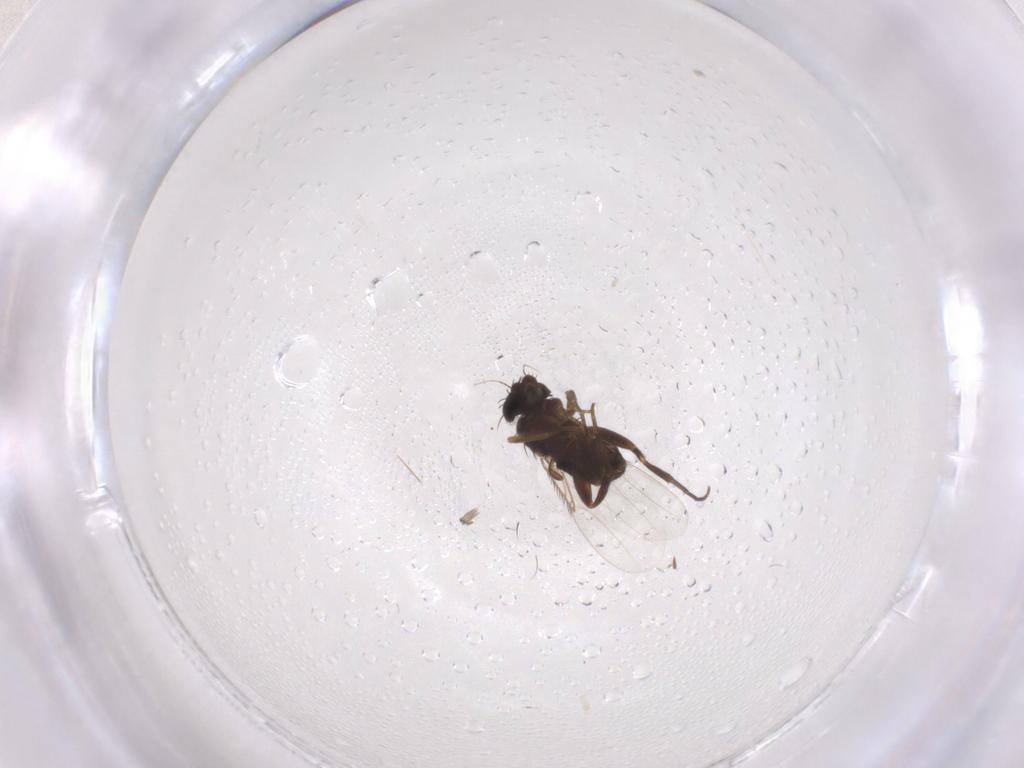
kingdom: Animalia
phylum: Arthropoda
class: Insecta
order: Diptera
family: Phoridae
